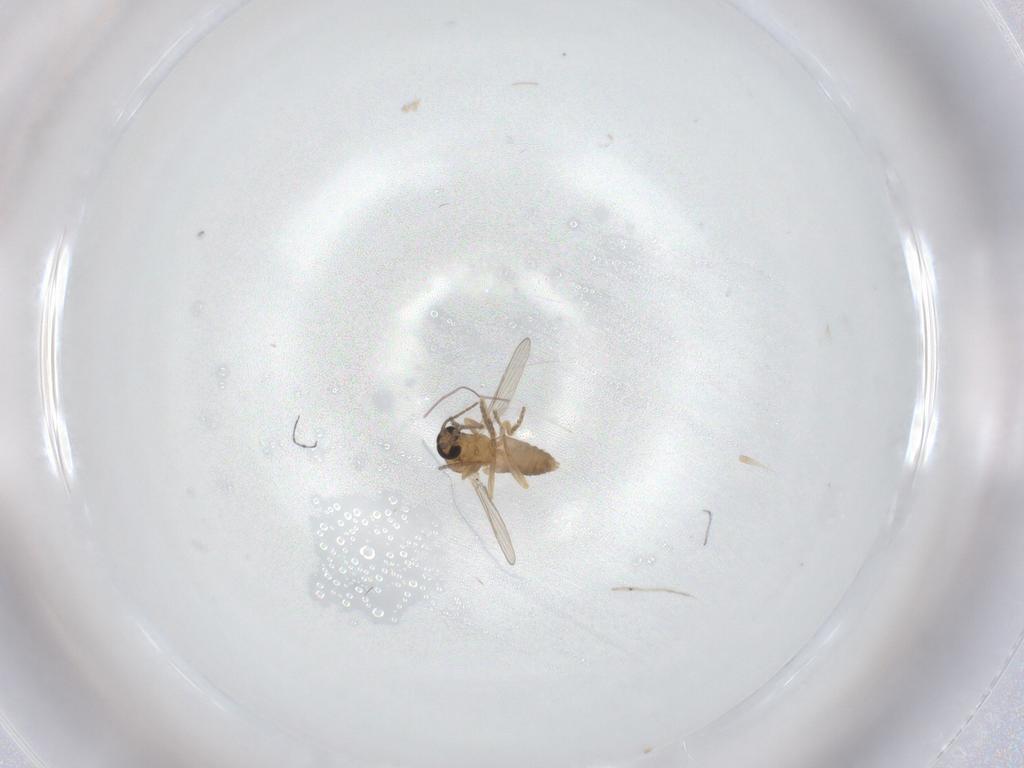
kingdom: Animalia
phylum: Arthropoda
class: Insecta
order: Diptera
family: Ceratopogonidae
